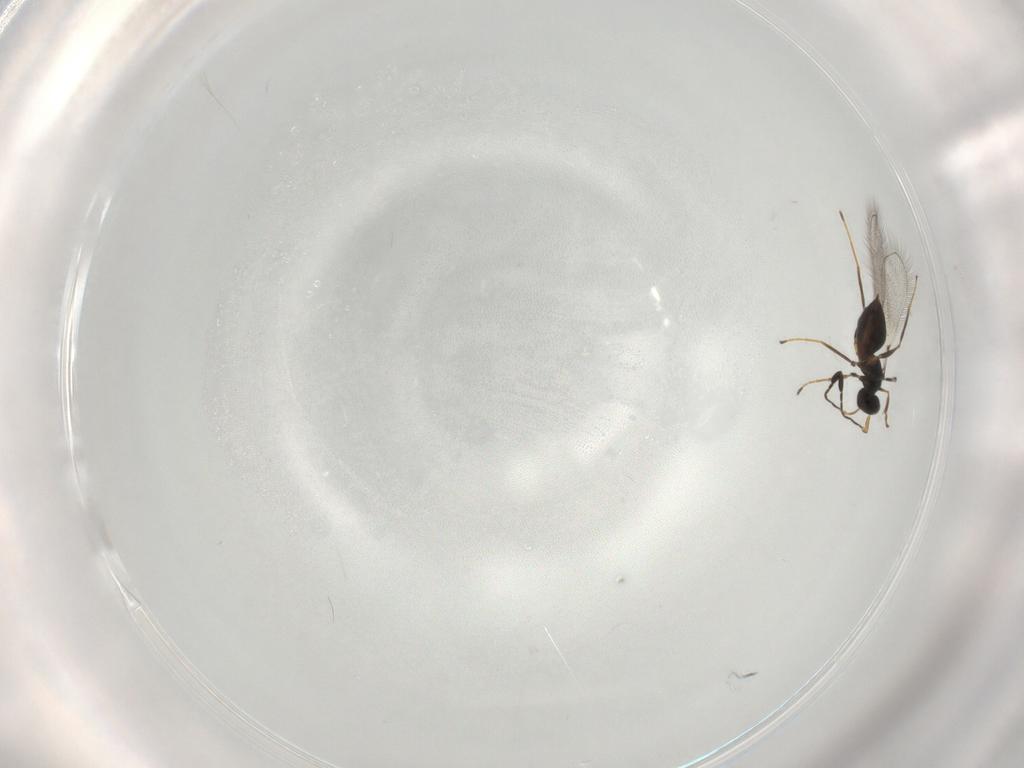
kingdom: Animalia
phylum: Arthropoda
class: Insecta
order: Hymenoptera
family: Mymaridae
